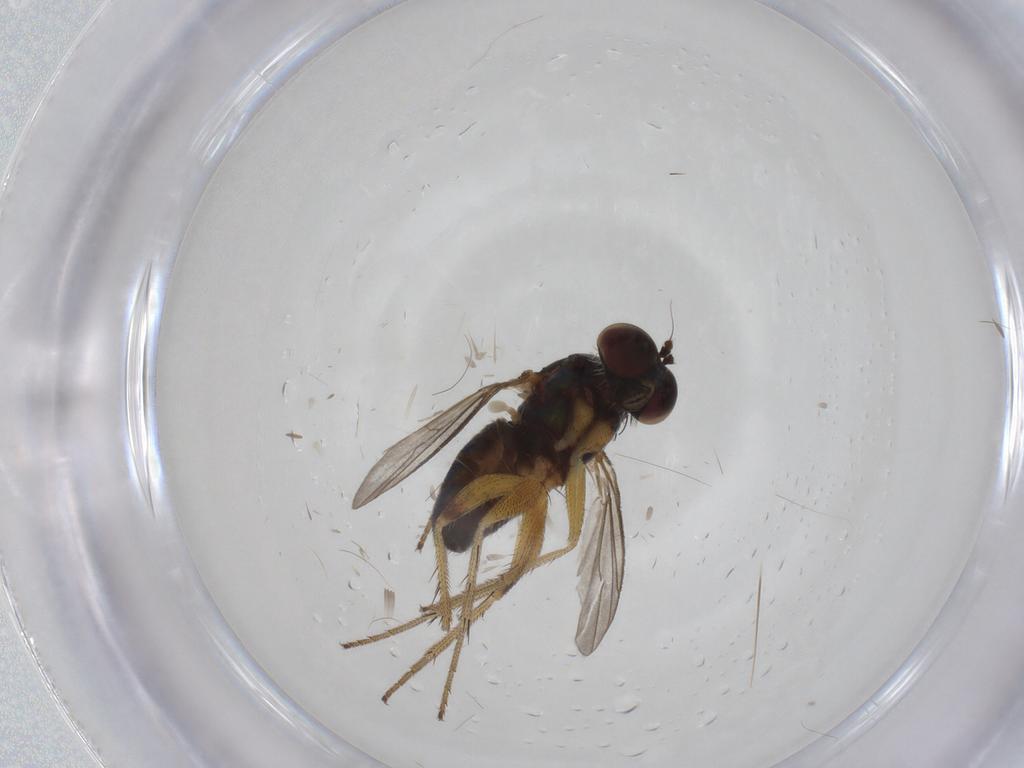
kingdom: Animalia
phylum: Arthropoda
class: Insecta
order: Diptera
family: Dolichopodidae
